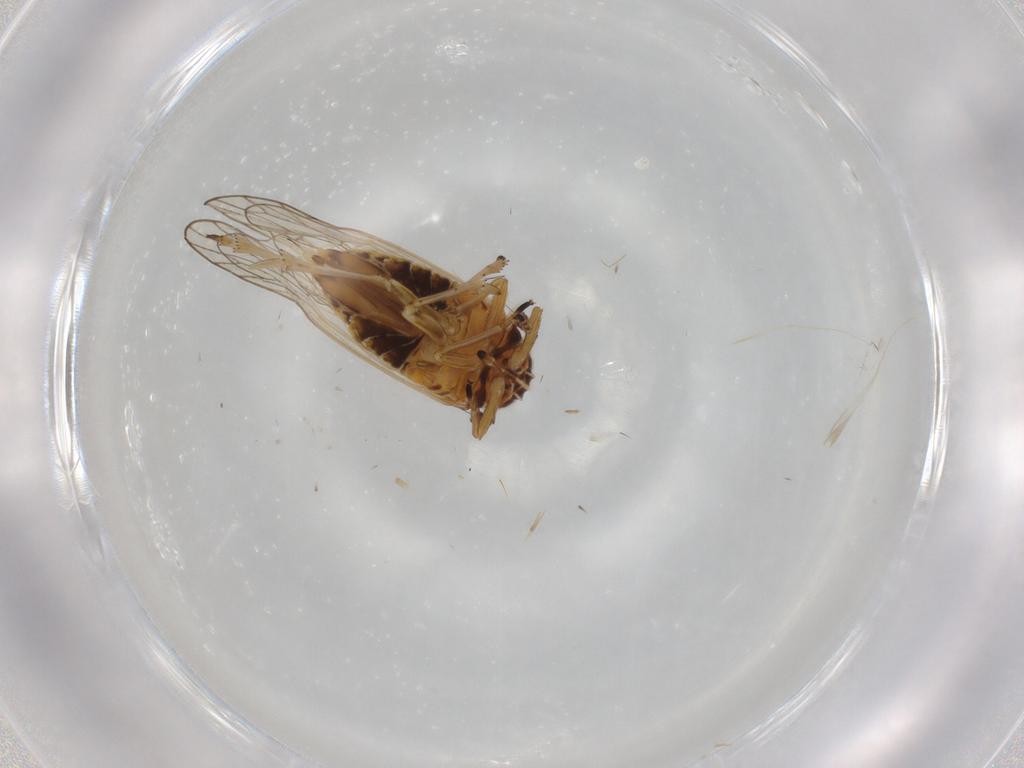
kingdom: Animalia
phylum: Arthropoda
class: Insecta
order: Hemiptera
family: Delphacidae
